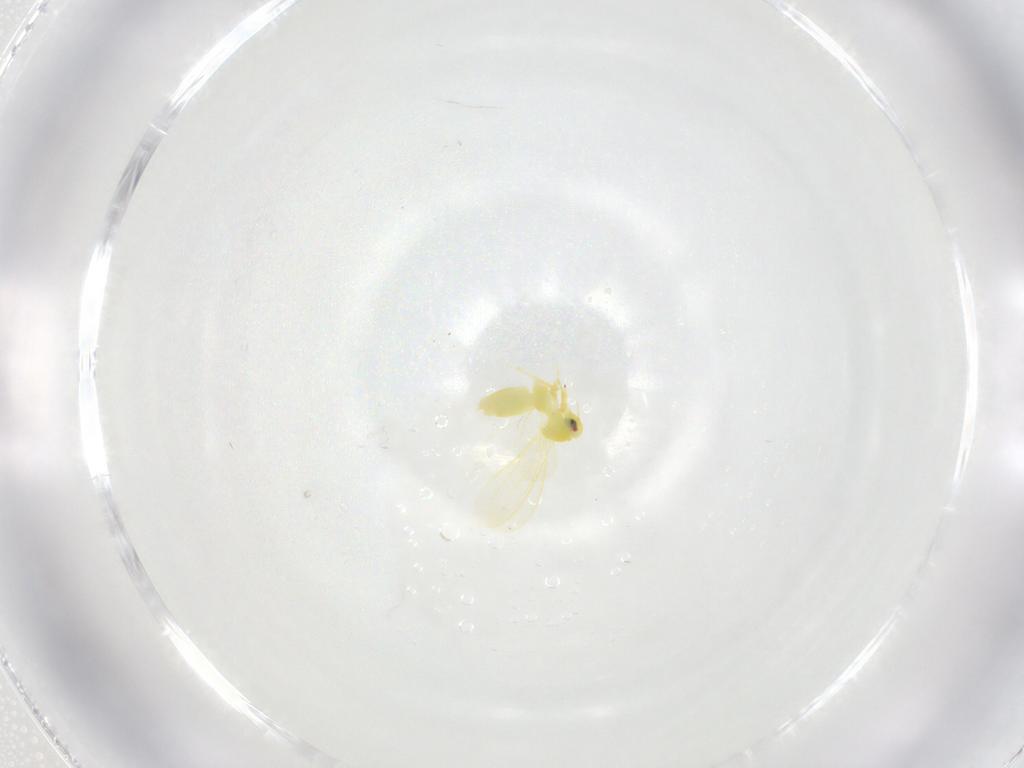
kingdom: Animalia
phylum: Arthropoda
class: Insecta
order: Hemiptera
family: Aleyrodidae
